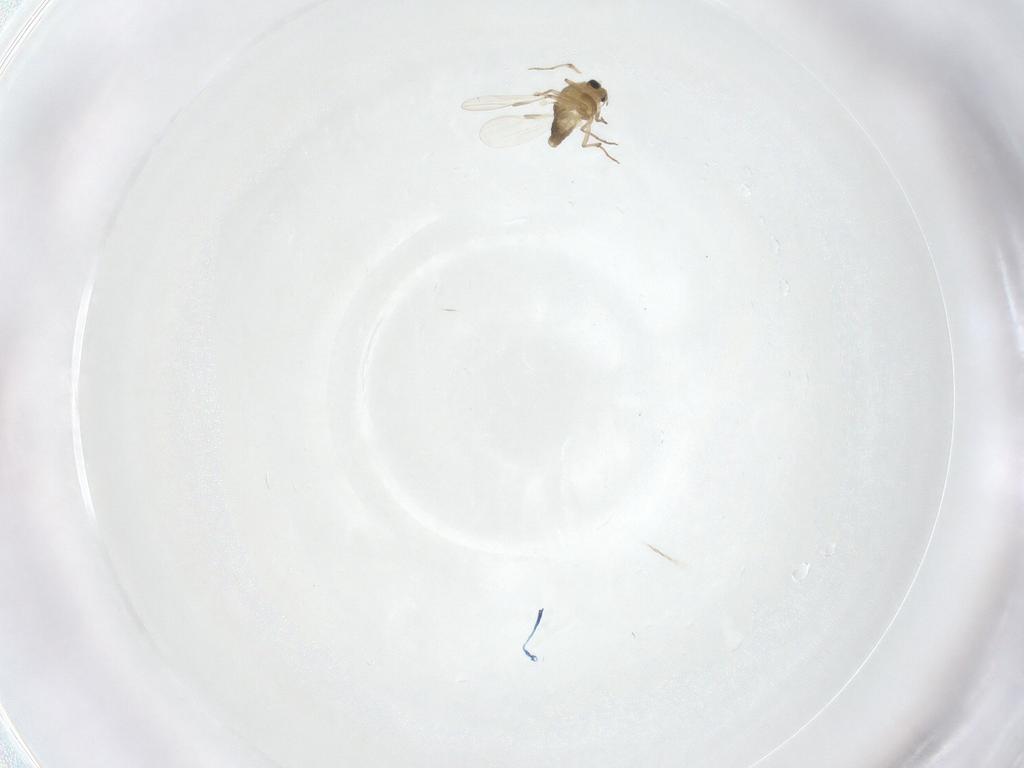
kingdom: Animalia
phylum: Arthropoda
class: Insecta
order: Diptera
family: Chironomidae
